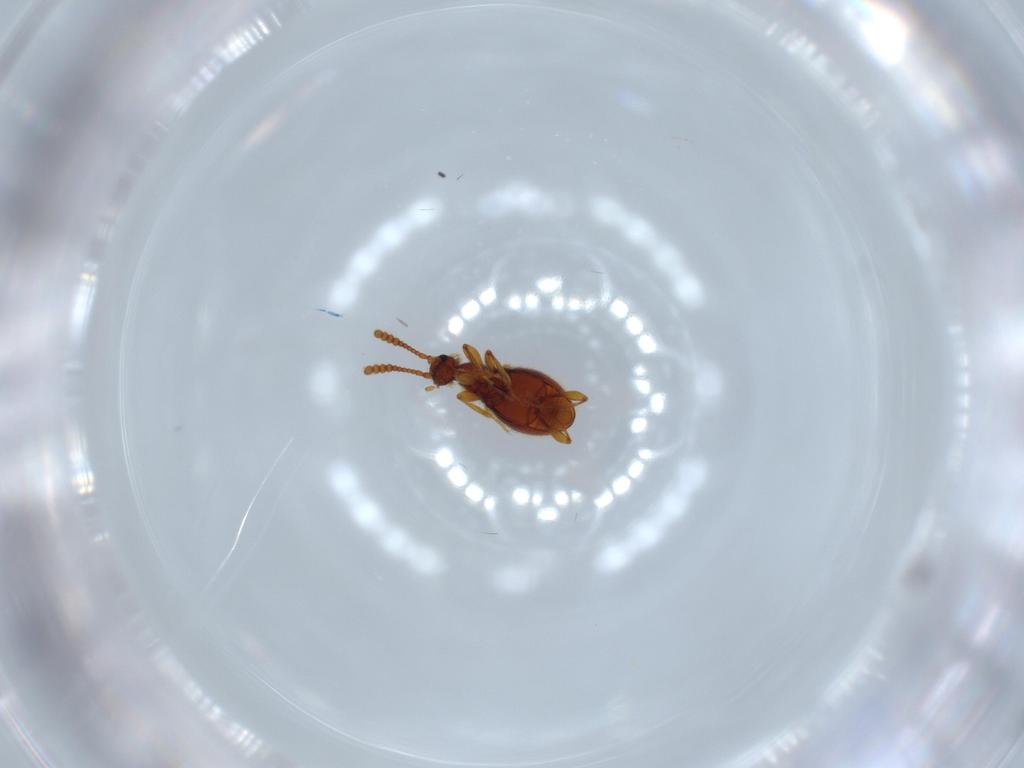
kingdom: Animalia
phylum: Arthropoda
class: Insecta
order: Coleoptera
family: Staphylinidae
